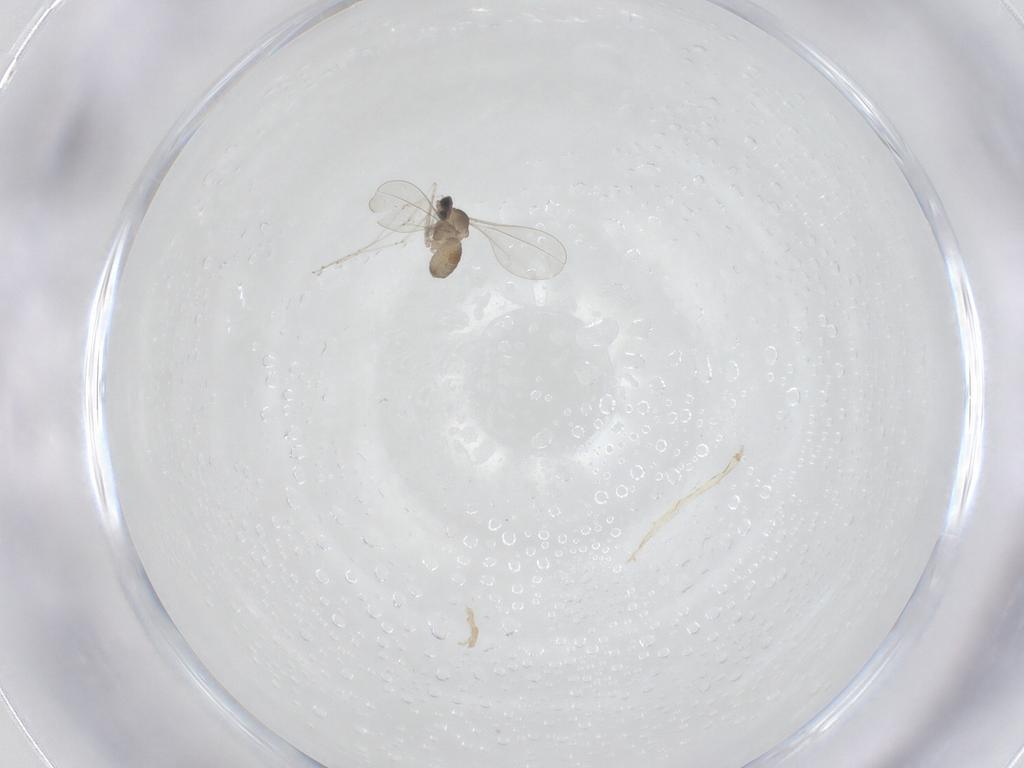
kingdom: Animalia
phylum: Arthropoda
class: Insecta
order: Diptera
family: Cecidomyiidae
